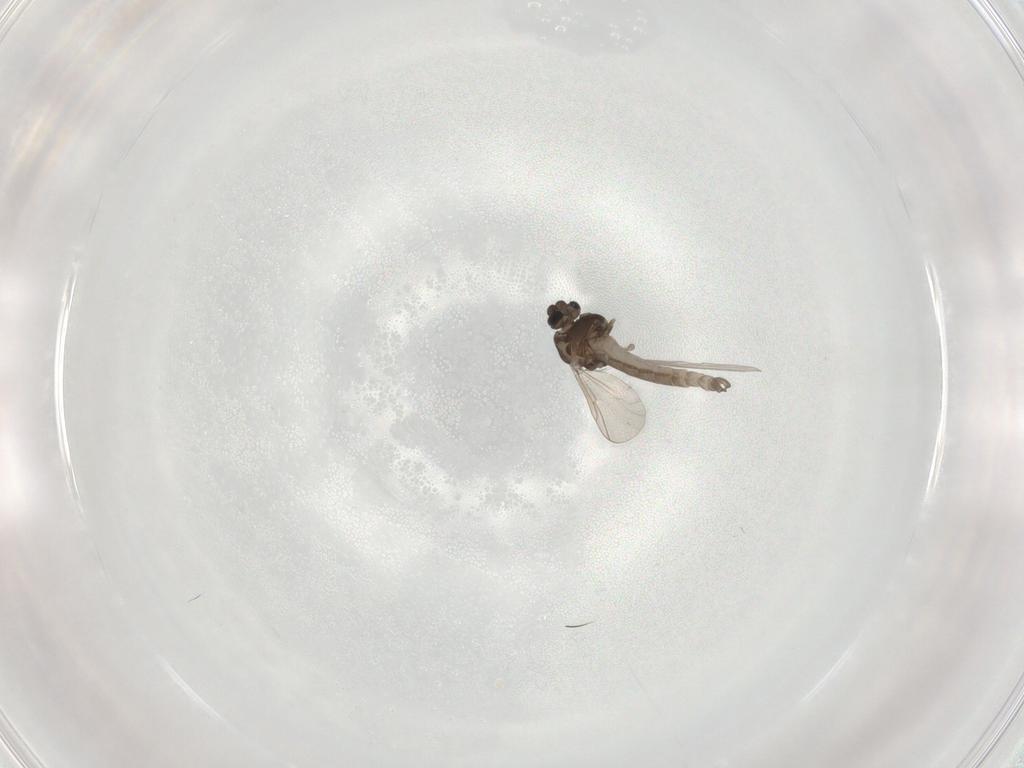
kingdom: Animalia
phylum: Arthropoda
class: Insecta
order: Diptera
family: Chironomidae
